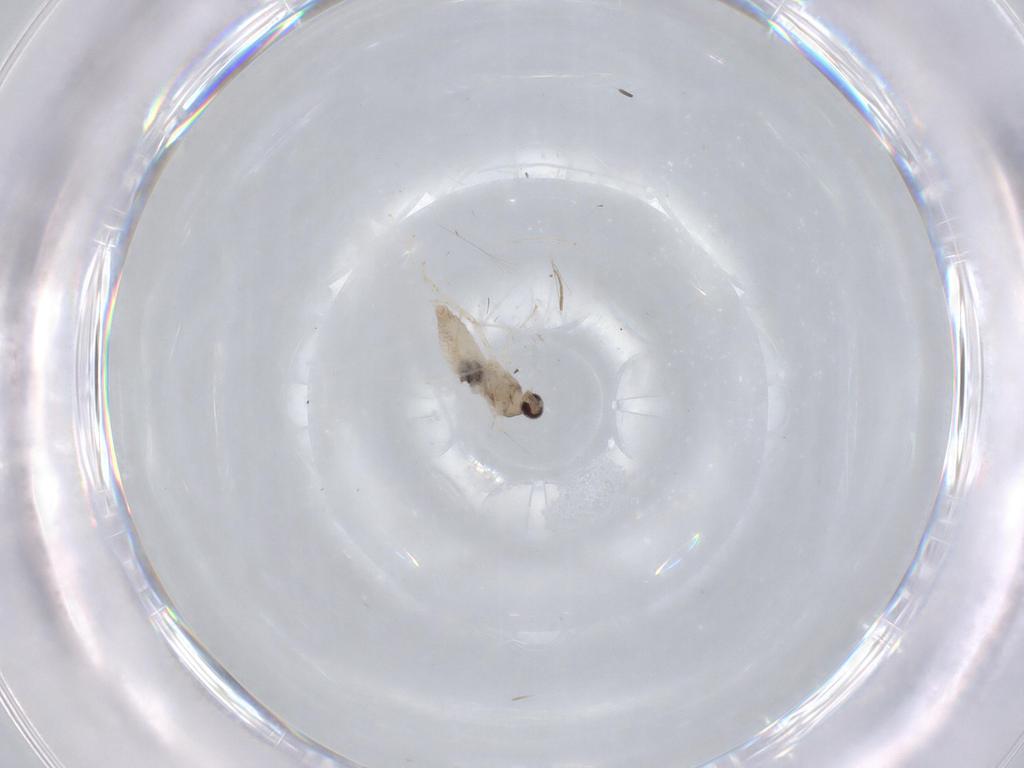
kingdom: Animalia
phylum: Arthropoda
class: Insecta
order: Diptera
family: Cecidomyiidae
